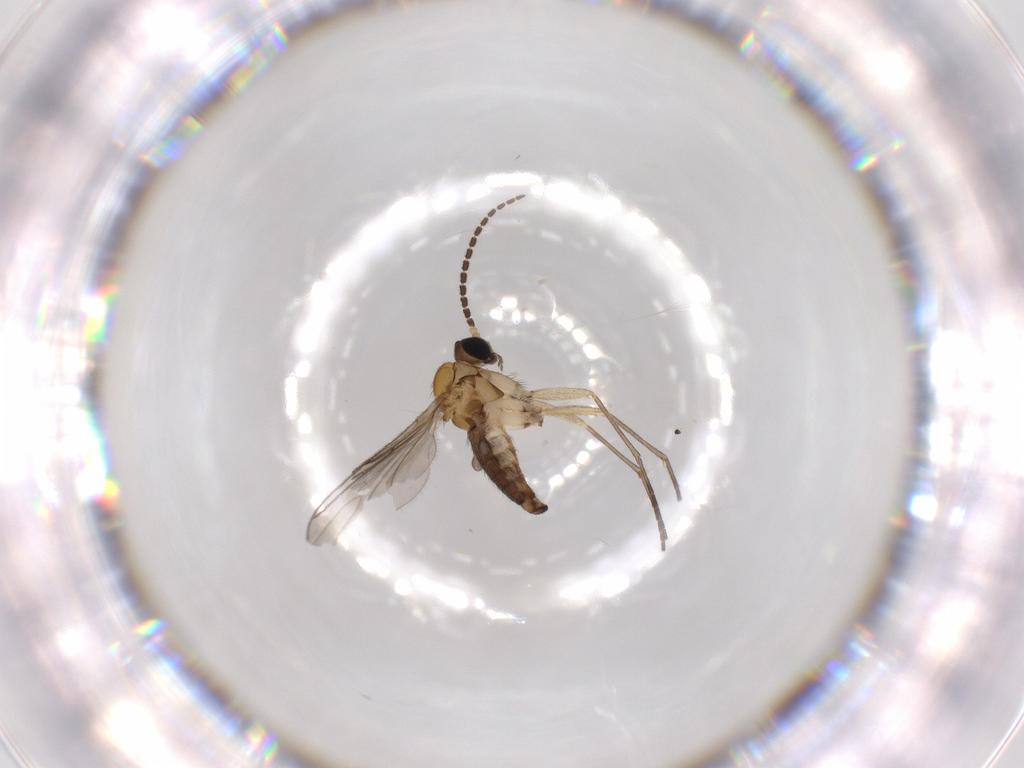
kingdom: Animalia
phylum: Arthropoda
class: Insecta
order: Diptera
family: Sciaridae
